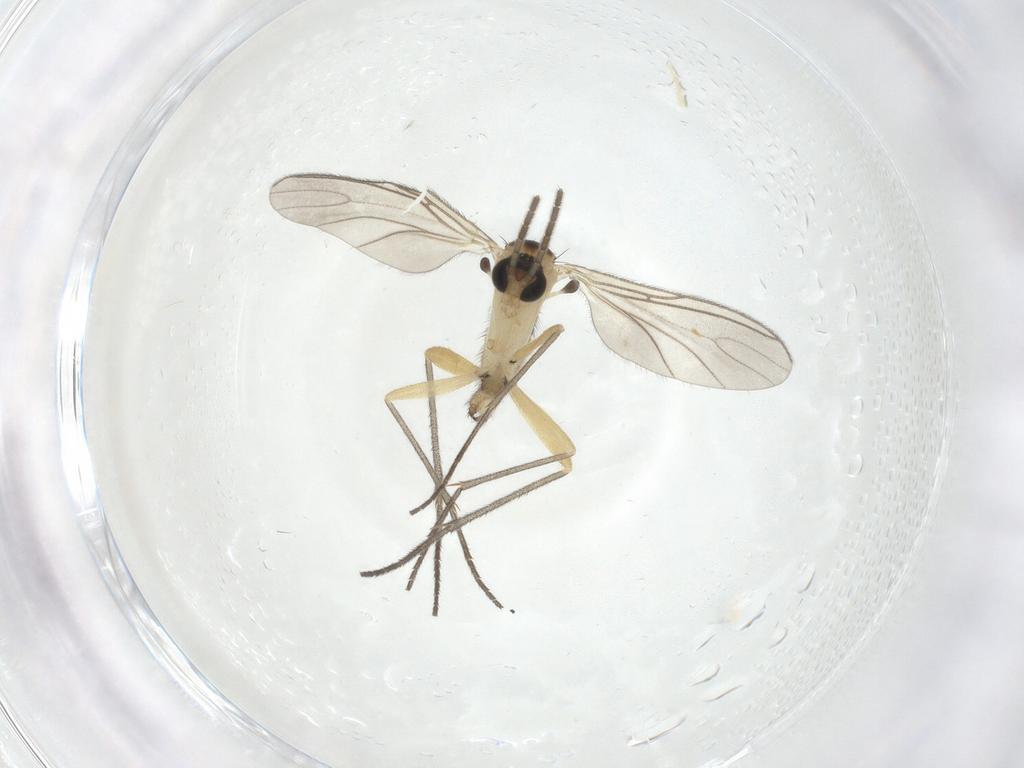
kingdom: Animalia
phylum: Arthropoda
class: Insecta
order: Diptera
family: Sciaridae
